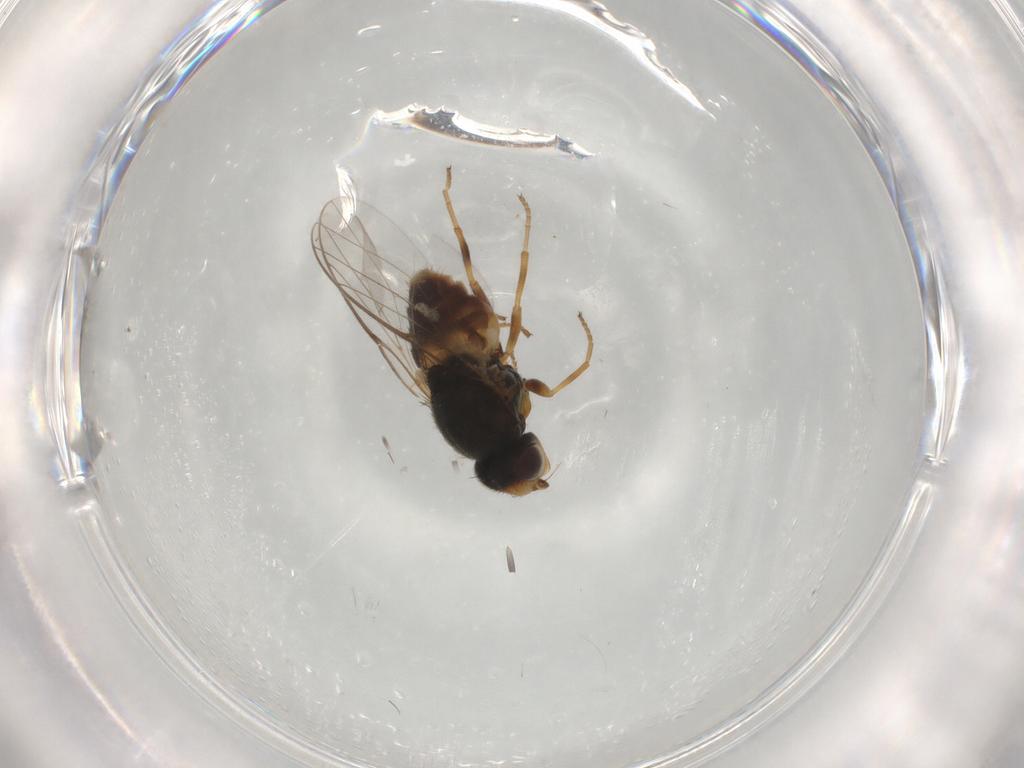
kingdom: Animalia
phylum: Arthropoda
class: Insecta
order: Diptera
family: Chloropidae
